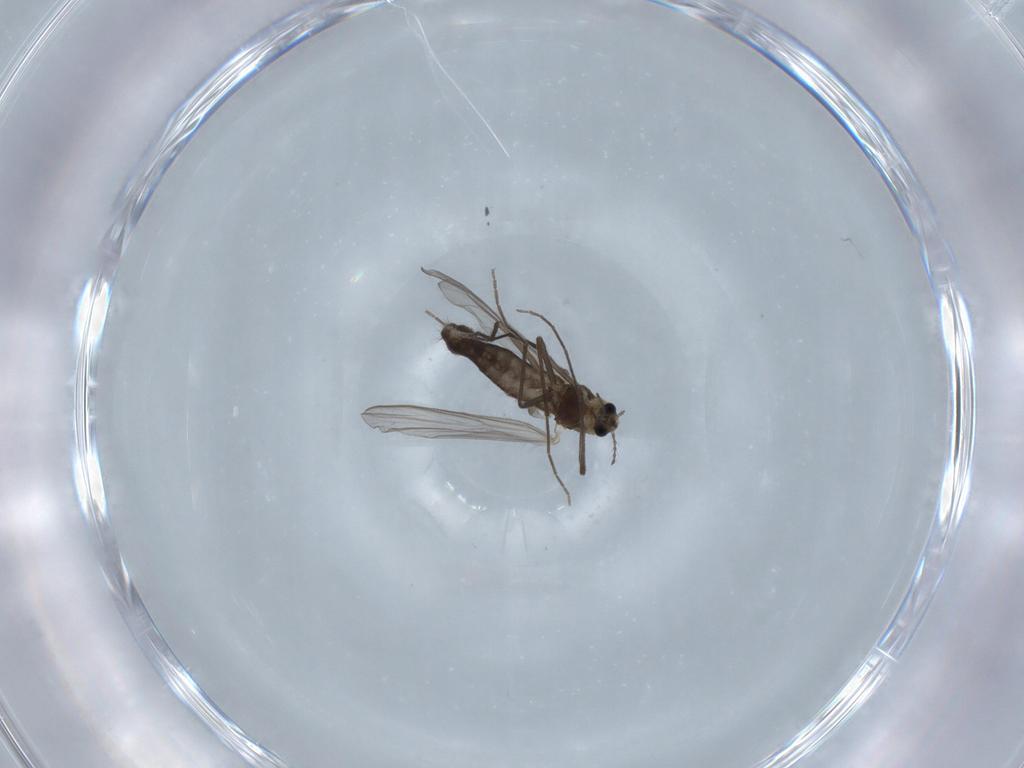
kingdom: Animalia
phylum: Arthropoda
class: Insecta
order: Diptera
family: Chironomidae
